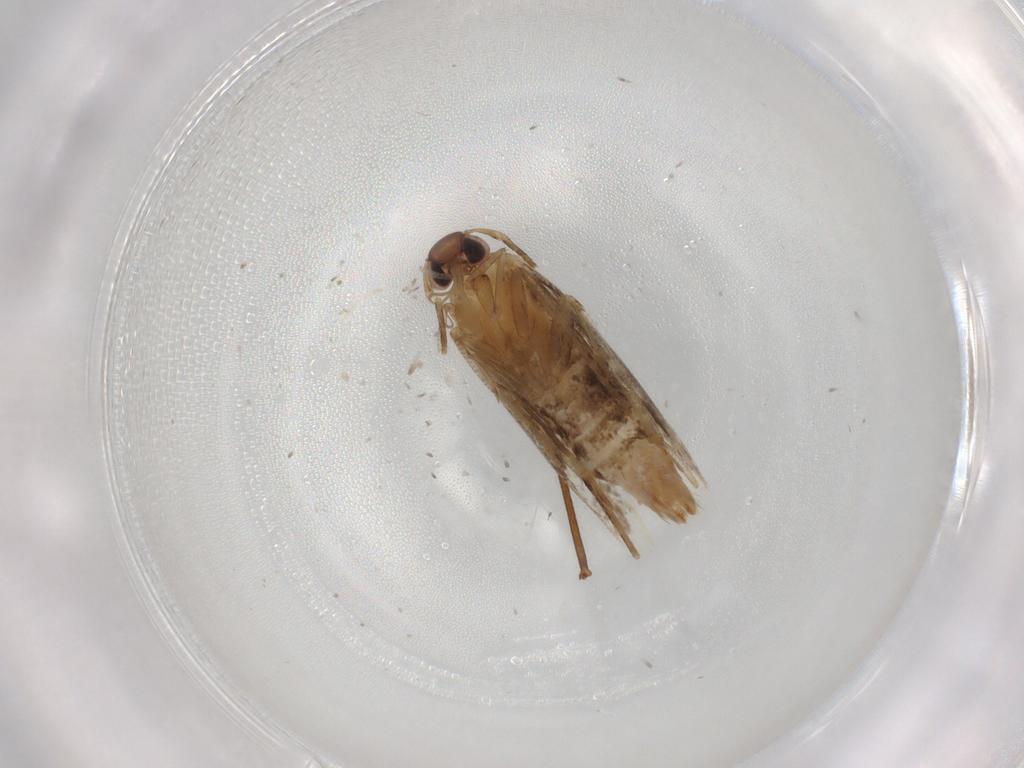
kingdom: Animalia
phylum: Arthropoda
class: Insecta
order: Lepidoptera
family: Cosmopterigidae
